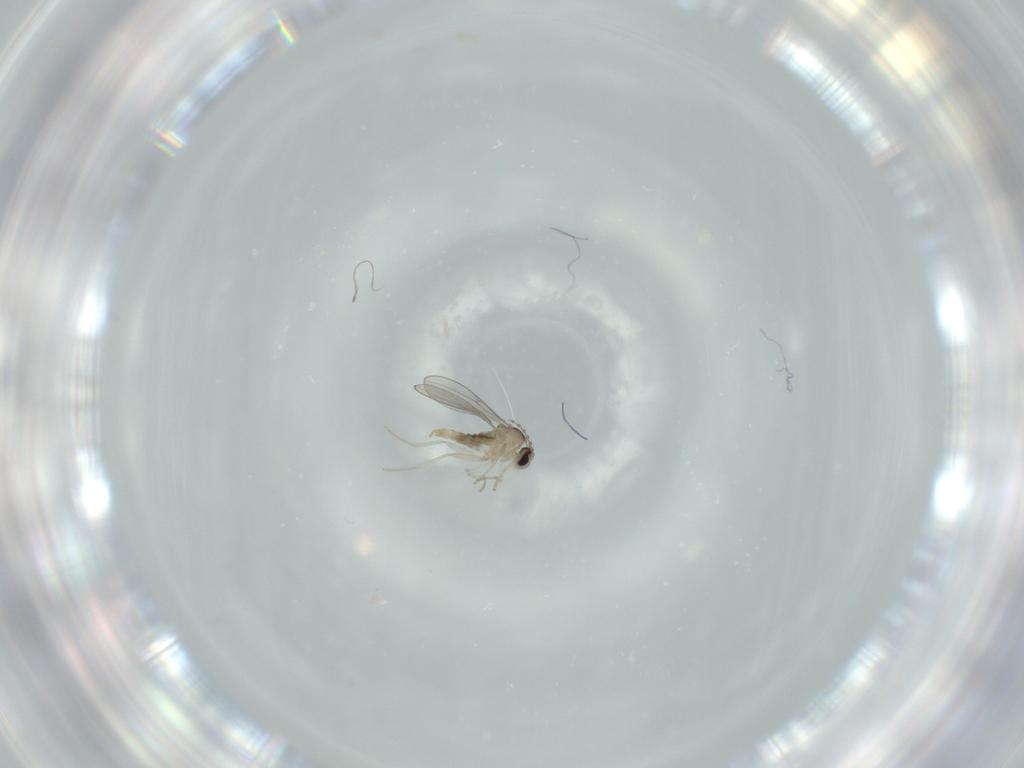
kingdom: Animalia
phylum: Arthropoda
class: Insecta
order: Diptera
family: Cecidomyiidae
